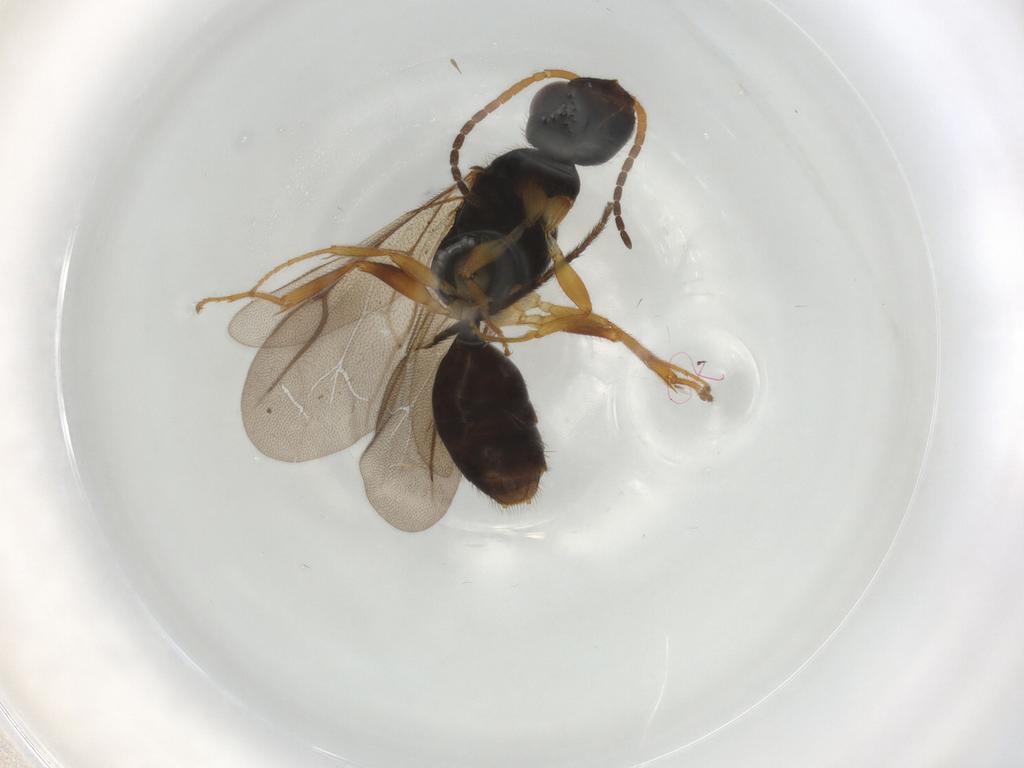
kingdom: Animalia
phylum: Arthropoda
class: Insecta
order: Hymenoptera
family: Bethylidae
